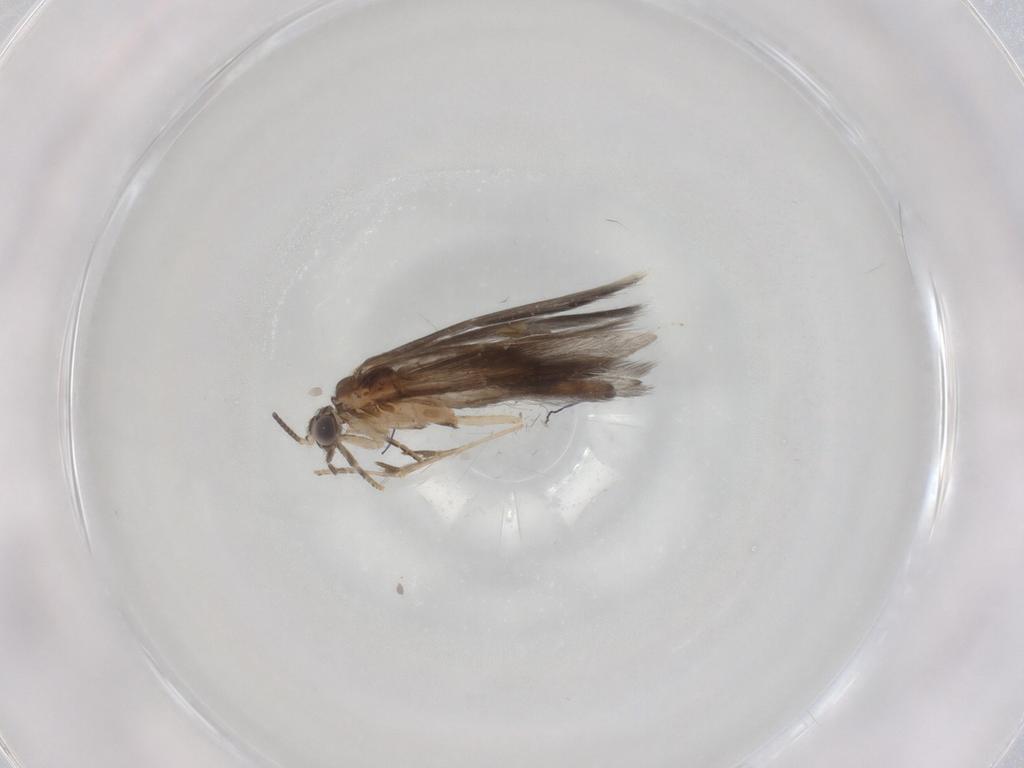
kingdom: Animalia
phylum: Arthropoda
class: Insecta
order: Trichoptera
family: Hydroptilidae
